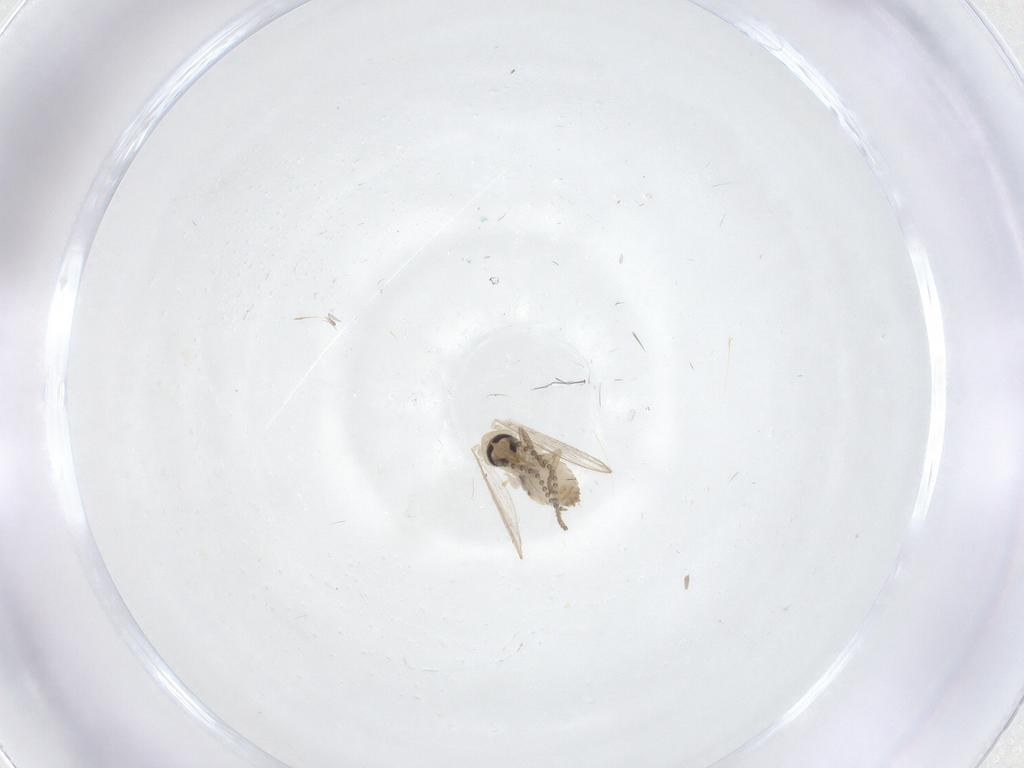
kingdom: Animalia
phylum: Arthropoda
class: Insecta
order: Diptera
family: Psychodidae
